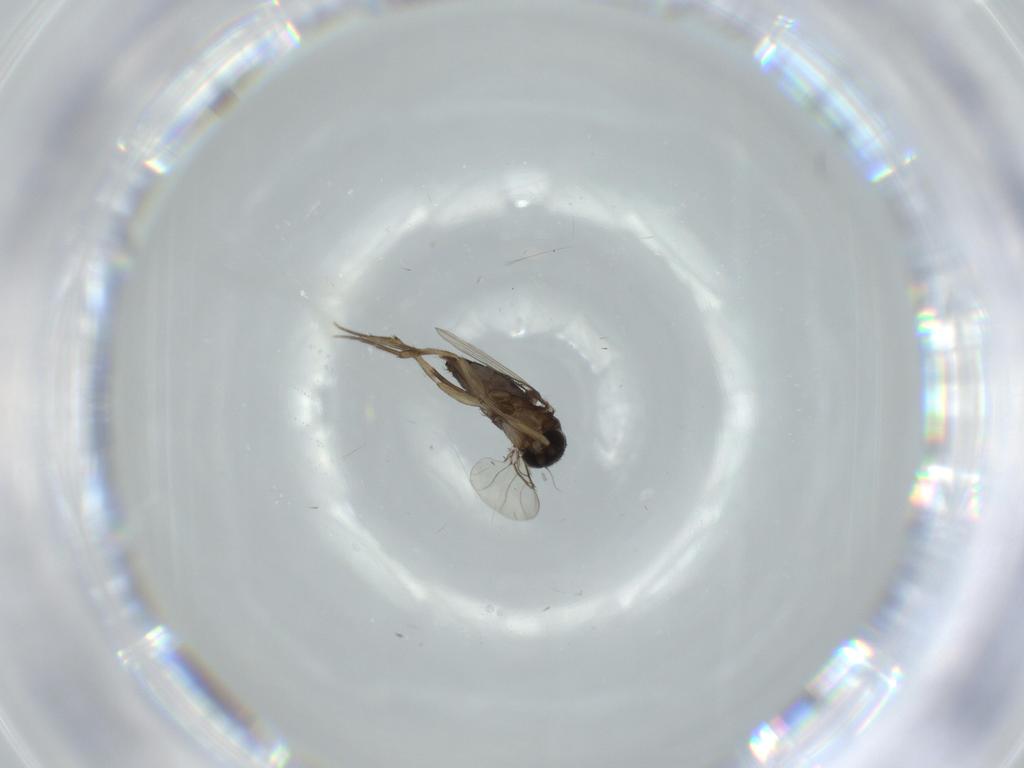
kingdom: Animalia
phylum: Arthropoda
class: Insecta
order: Diptera
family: Phoridae
